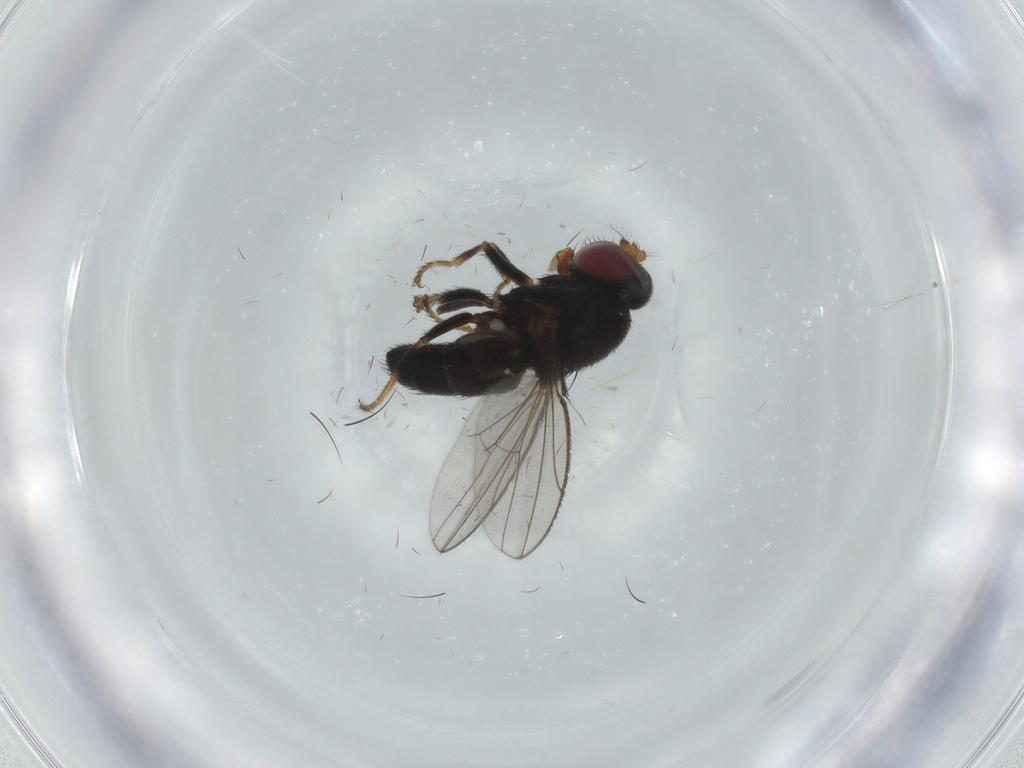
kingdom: Animalia
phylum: Arthropoda
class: Insecta
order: Diptera
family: Ephydridae
